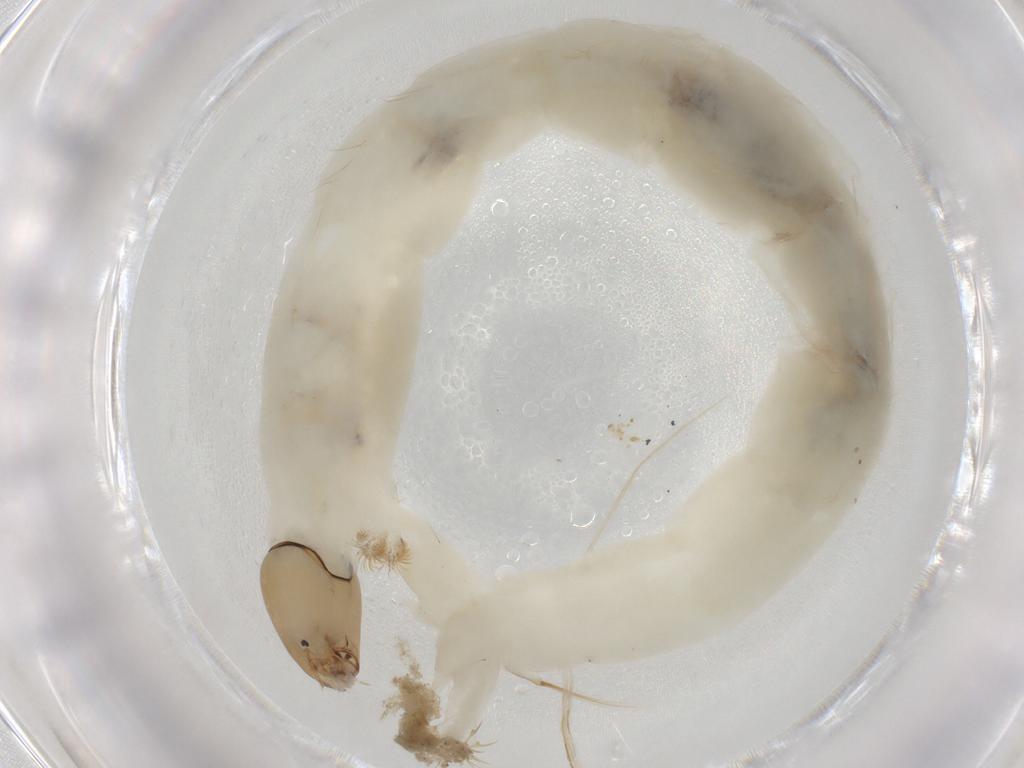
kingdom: Animalia
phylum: Arthropoda
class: Insecta
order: Diptera
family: Chironomidae
